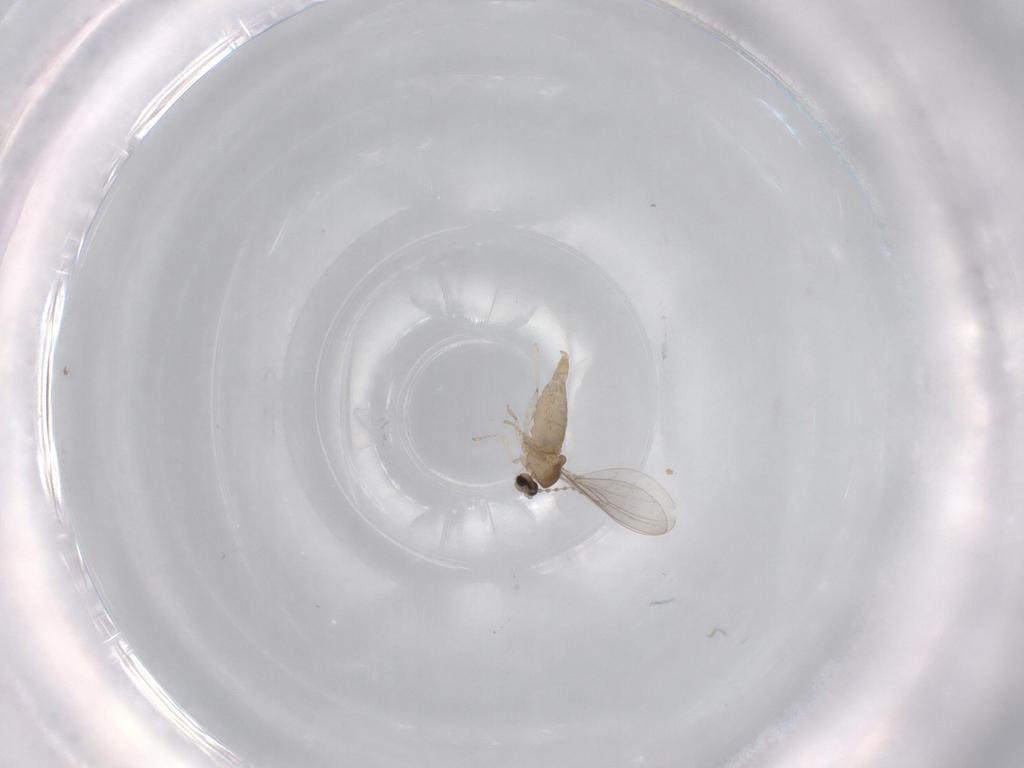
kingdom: Animalia
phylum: Arthropoda
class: Insecta
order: Diptera
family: Cecidomyiidae
